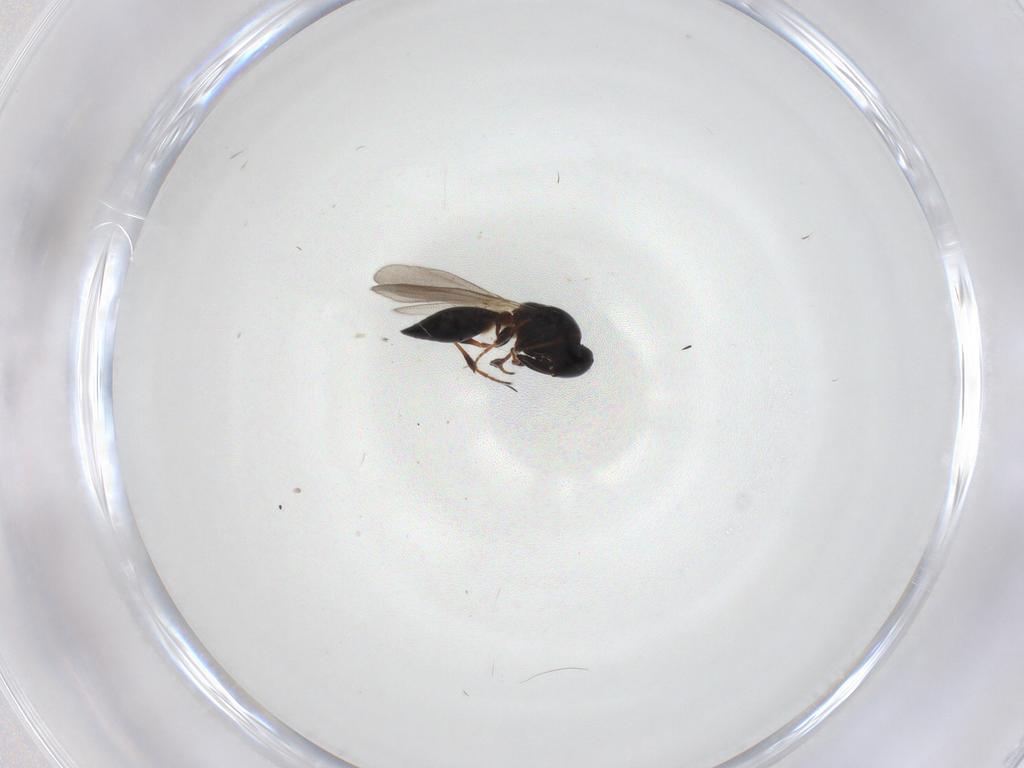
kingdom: Animalia
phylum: Arthropoda
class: Insecta
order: Hymenoptera
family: Platygastridae
